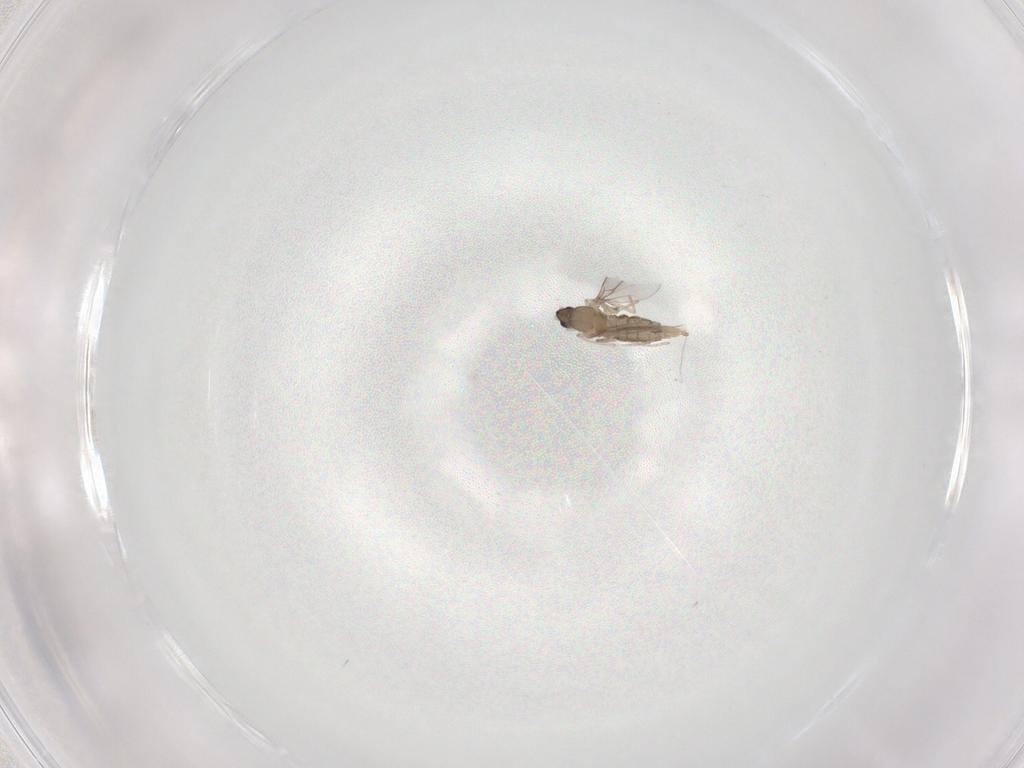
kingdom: Animalia
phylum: Arthropoda
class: Insecta
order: Diptera
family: Cecidomyiidae
